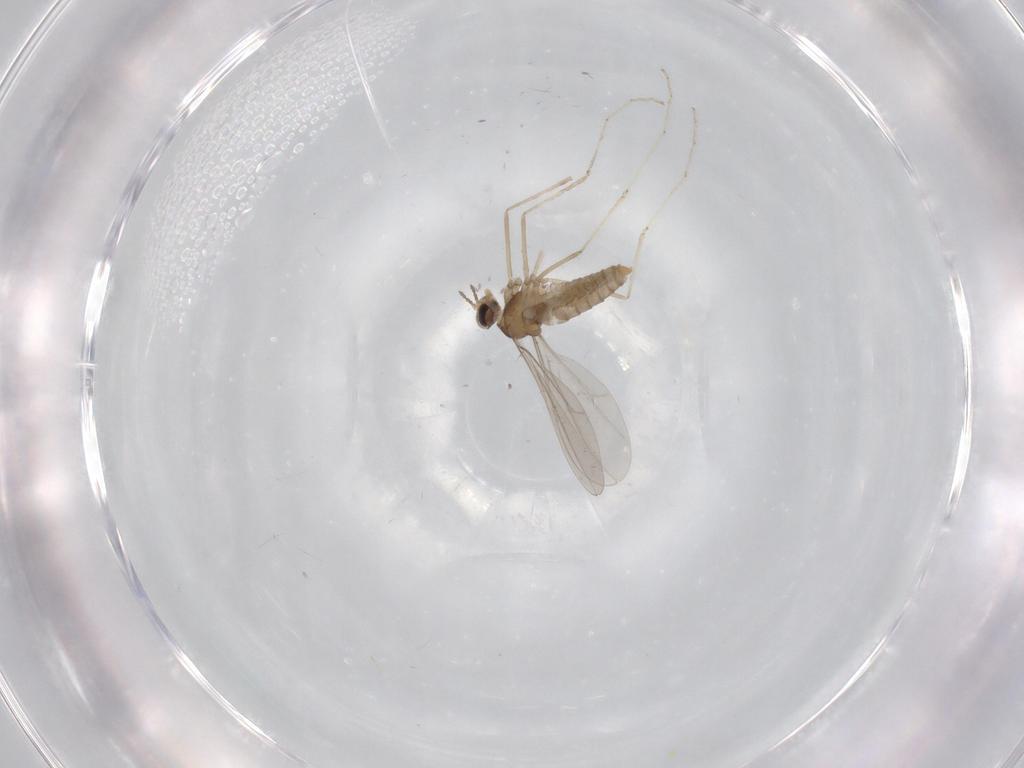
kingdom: Animalia
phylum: Arthropoda
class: Insecta
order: Diptera
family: Cecidomyiidae
